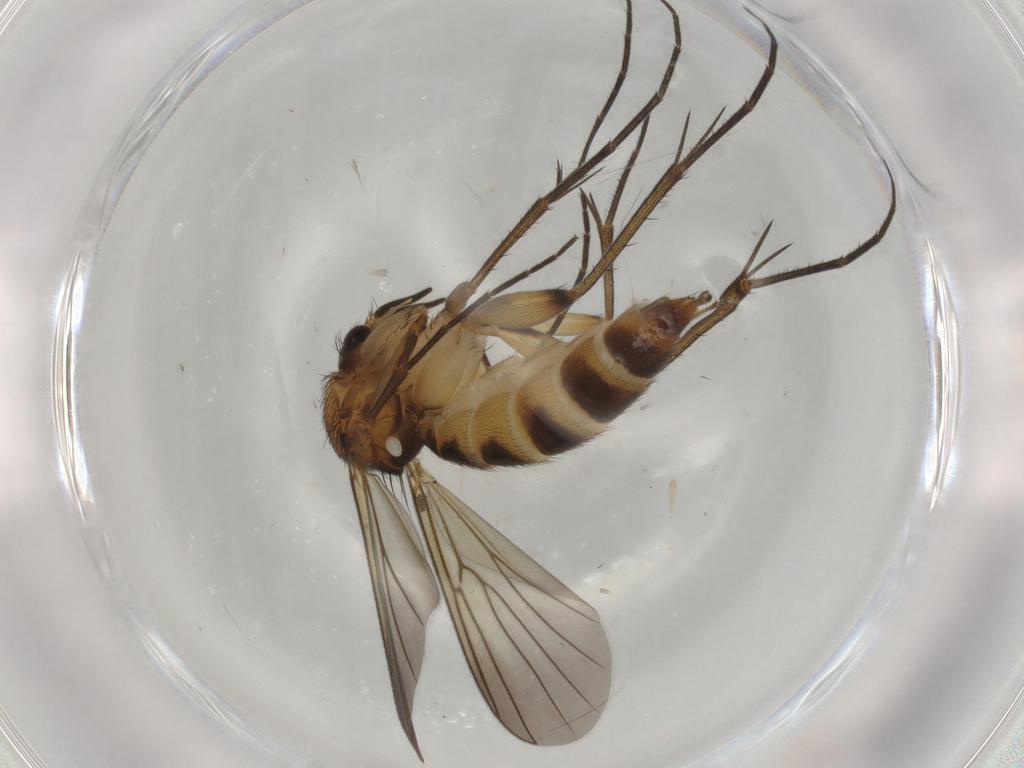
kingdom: Animalia
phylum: Arthropoda
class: Insecta
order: Diptera
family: Mycetophilidae
